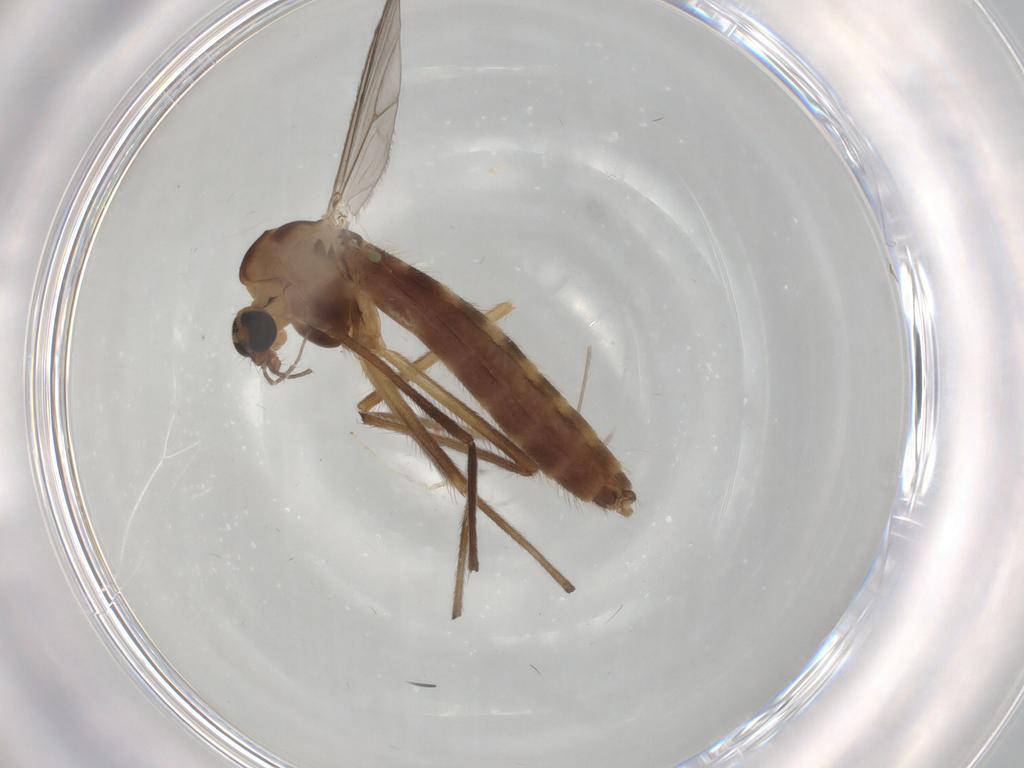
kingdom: Animalia
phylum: Arthropoda
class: Insecta
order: Diptera
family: Chironomidae
